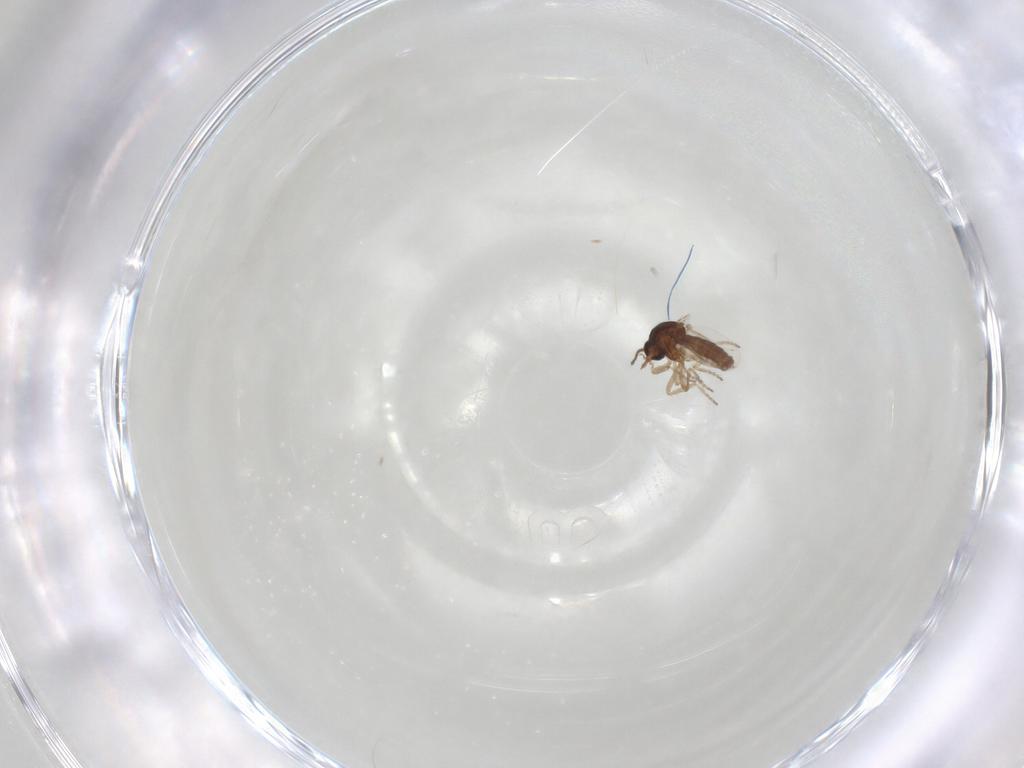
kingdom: Animalia
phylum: Arthropoda
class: Insecta
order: Diptera
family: Ceratopogonidae
